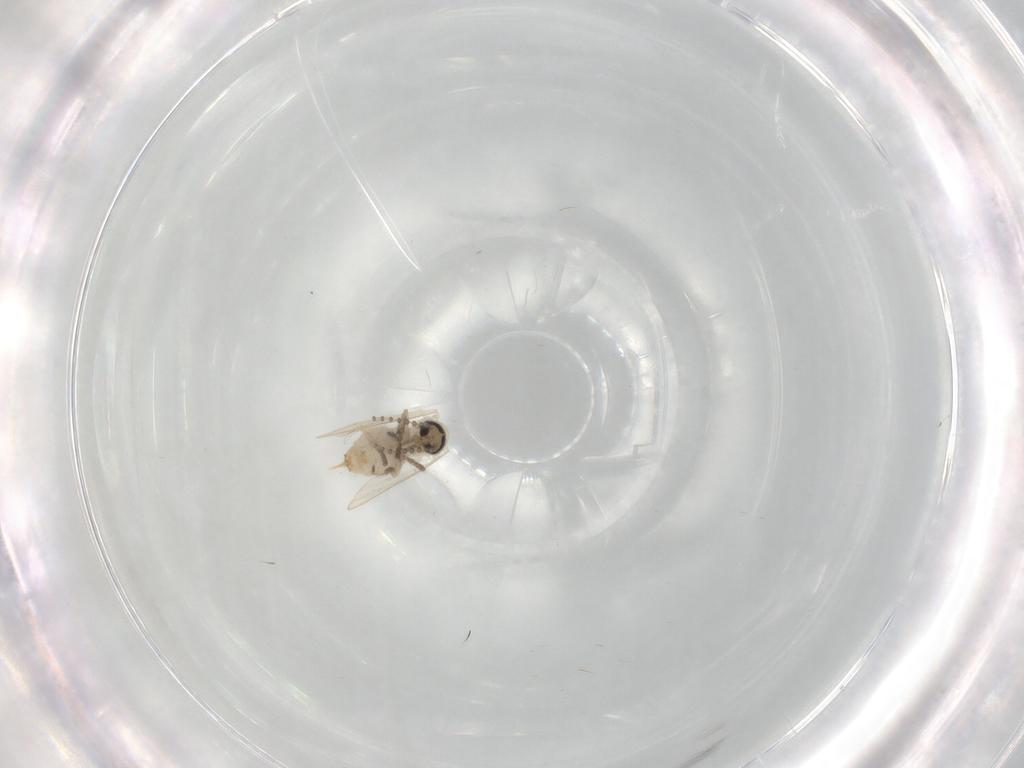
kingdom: Animalia
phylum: Arthropoda
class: Insecta
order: Diptera
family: Psychodidae
